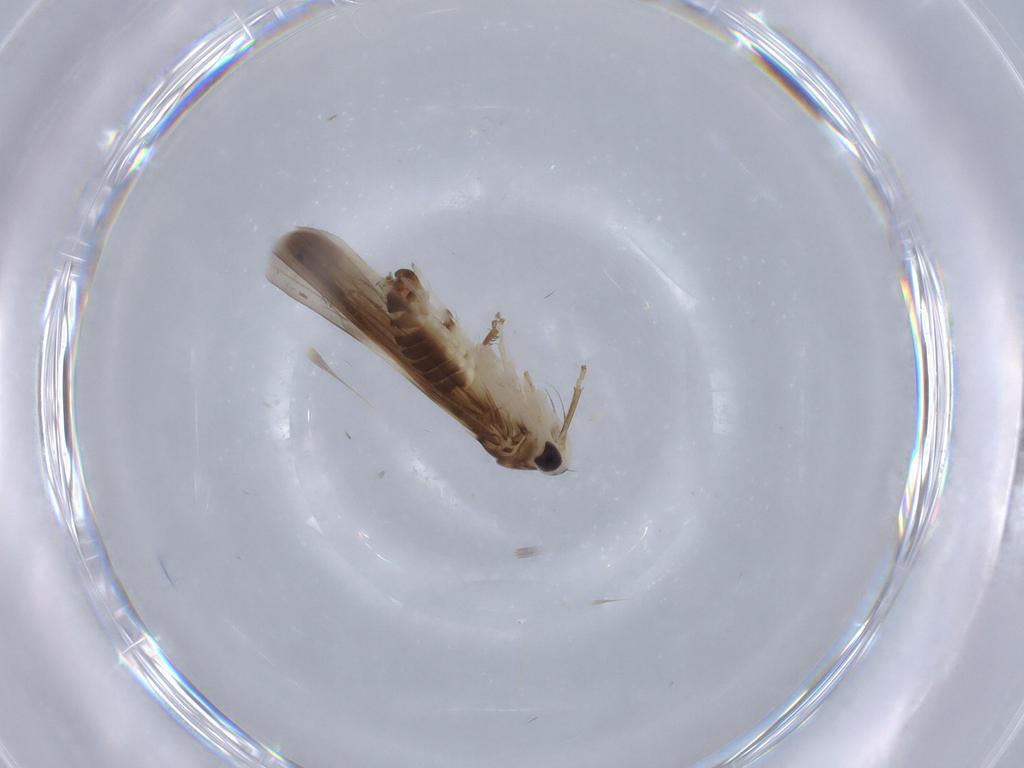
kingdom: Animalia
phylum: Arthropoda
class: Insecta
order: Hemiptera
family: Cicadellidae
